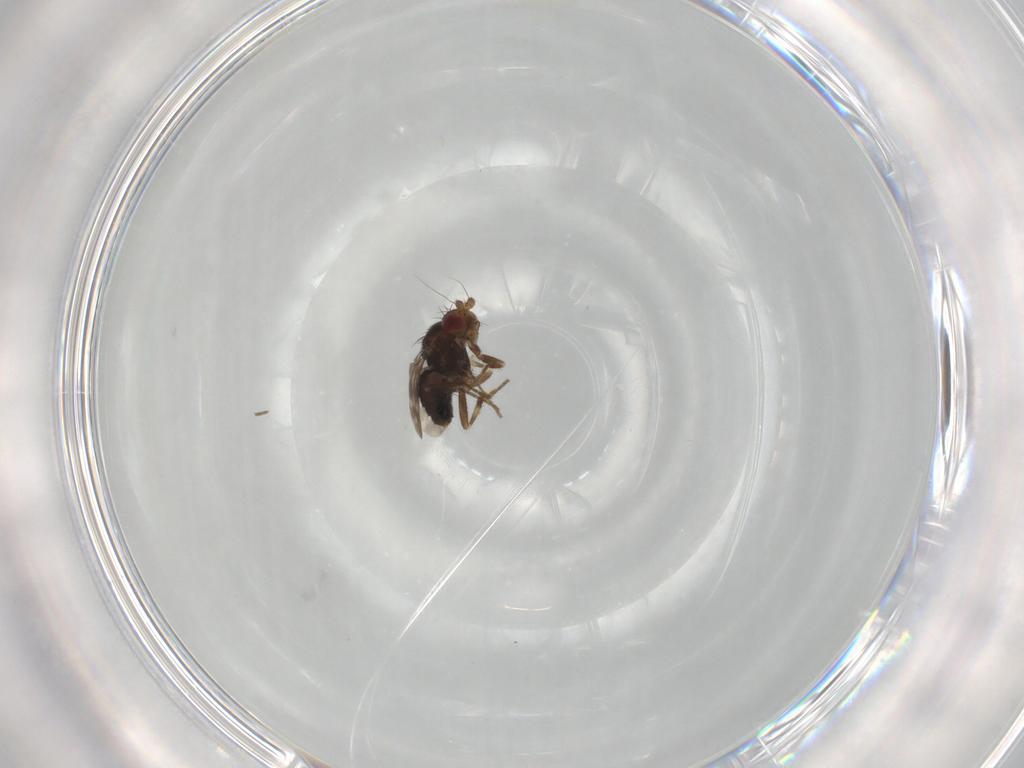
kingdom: Animalia
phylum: Arthropoda
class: Insecta
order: Diptera
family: Sphaeroceridae
